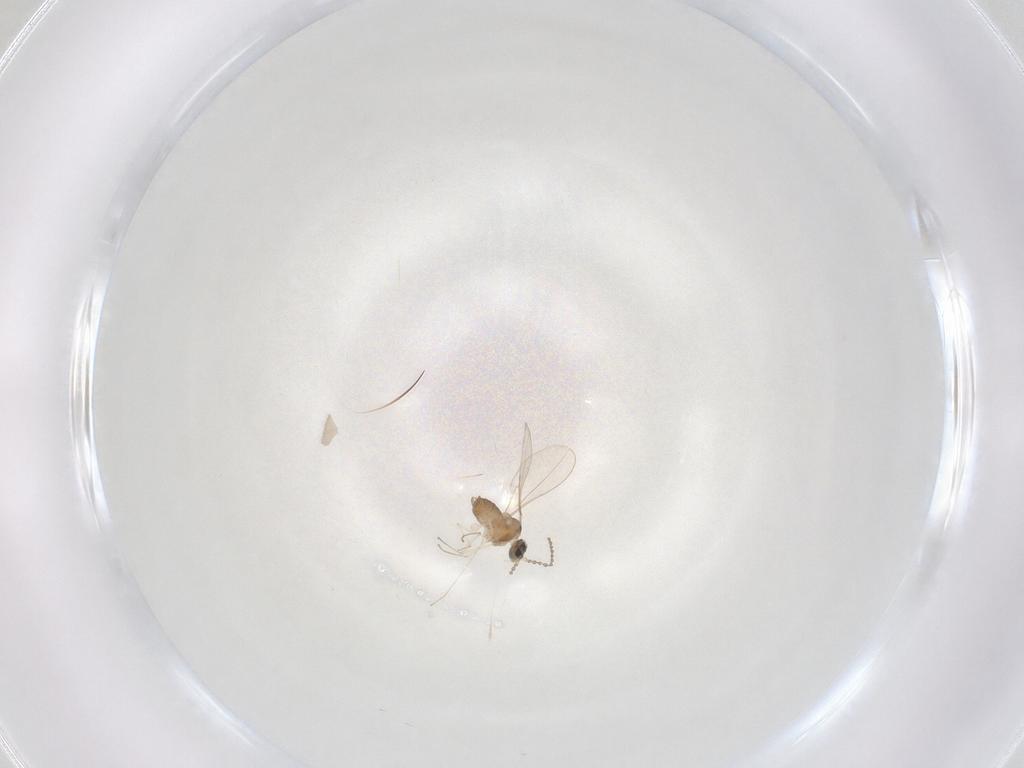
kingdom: Animalia
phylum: Arthropoda
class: Insecta
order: Diptera
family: Cecidomyiidae
